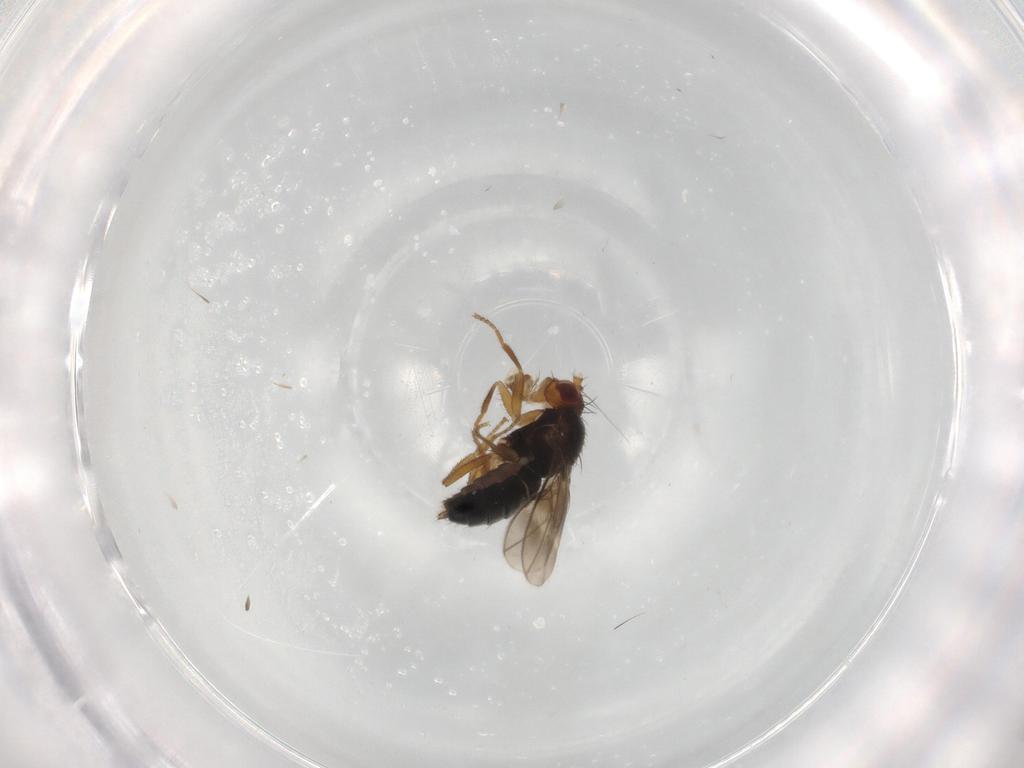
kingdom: Animalia
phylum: Arthropoda
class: Insecta
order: Diptera
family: Sphaeroceridae
